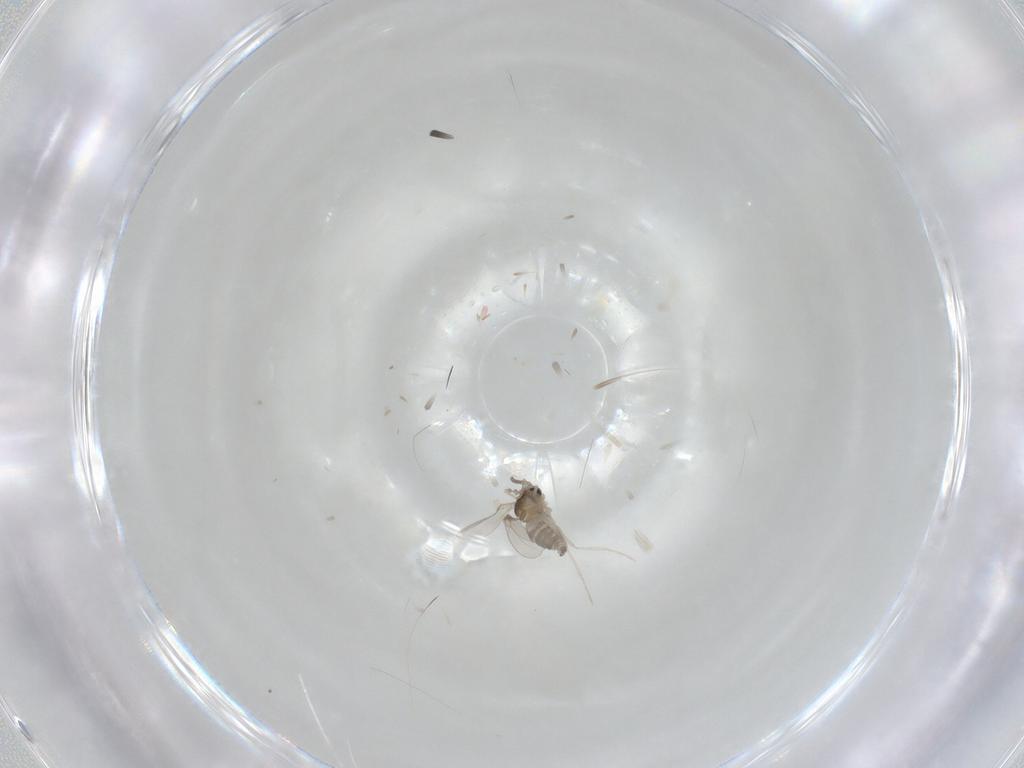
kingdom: Animalia
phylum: Arthropoda
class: Insecta
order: Diptera
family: Cecidomyiidae
